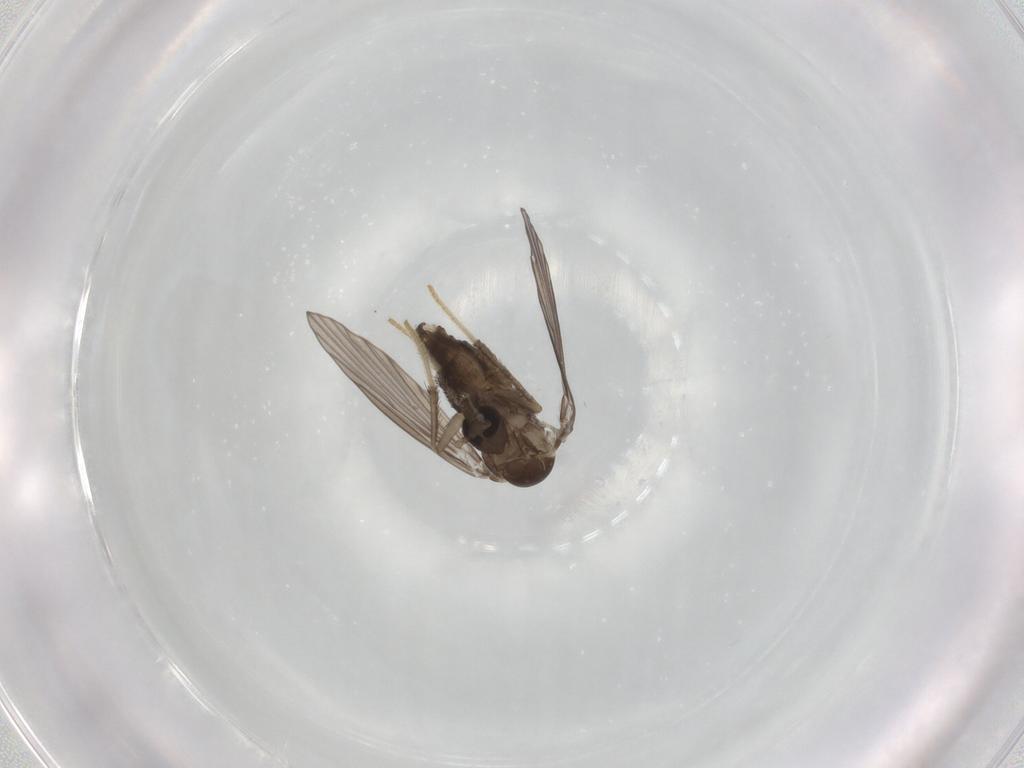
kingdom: Animalia
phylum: Arthropoda
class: Insecta
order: Diptera
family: Psychodidae
